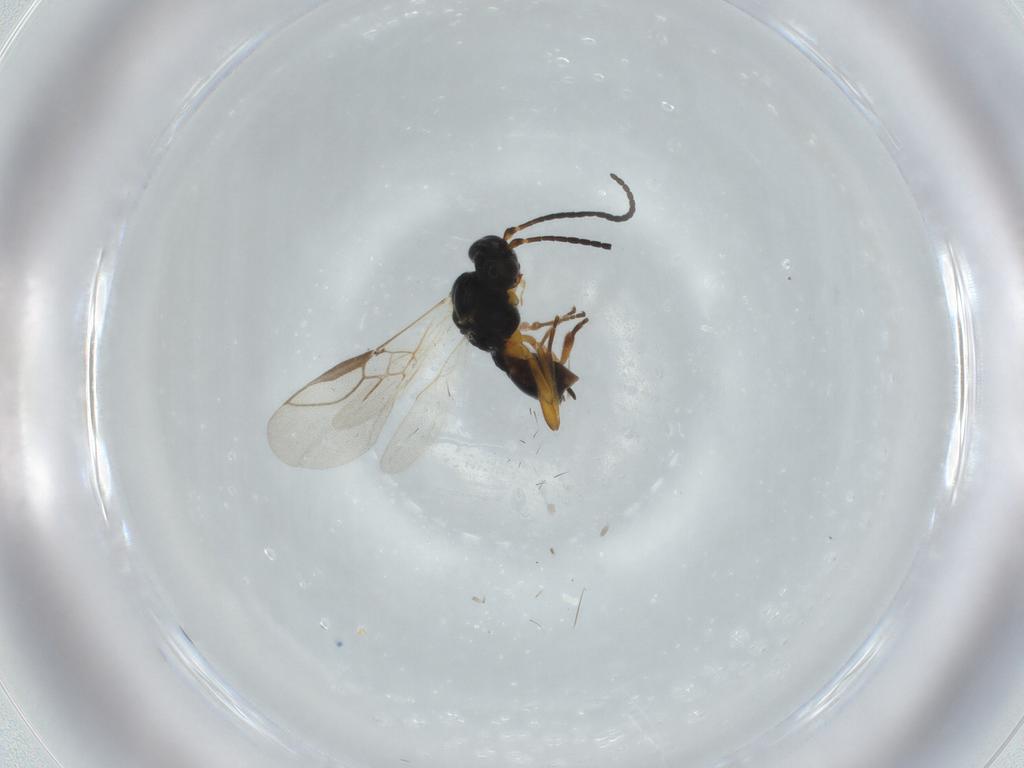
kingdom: Animalia
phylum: Arthropoda
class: Insecta
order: Hymenoptera
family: Braconidae
